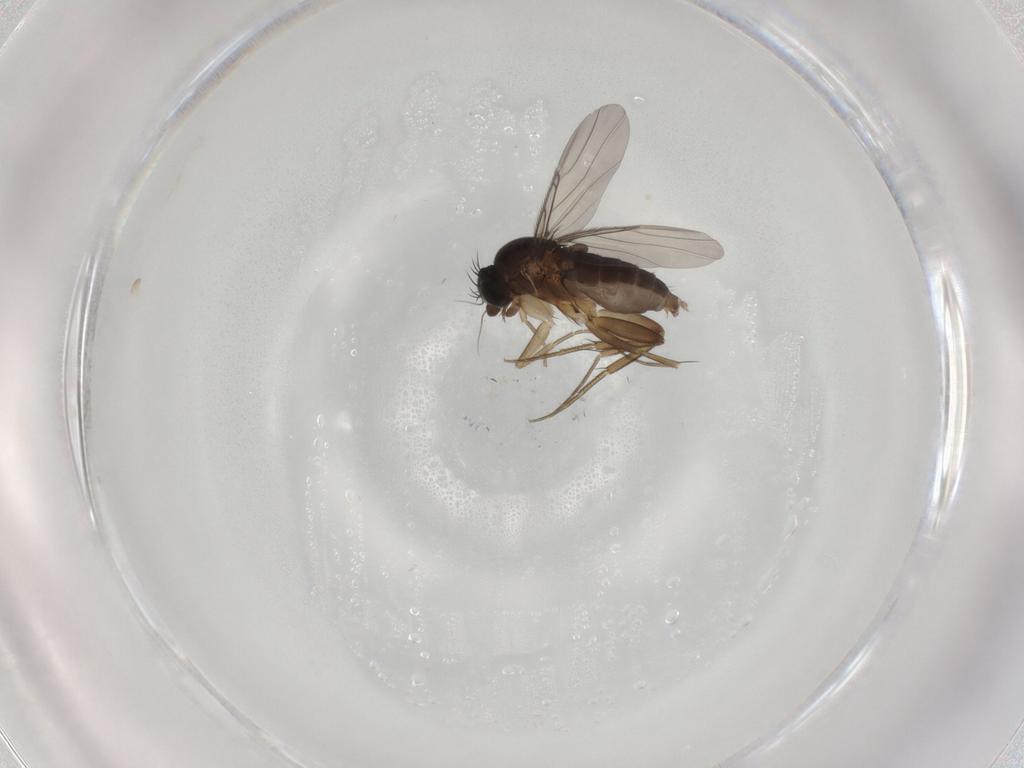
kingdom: Animalia
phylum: Arthropoda
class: Insecta
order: Diptera
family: Phoridae
